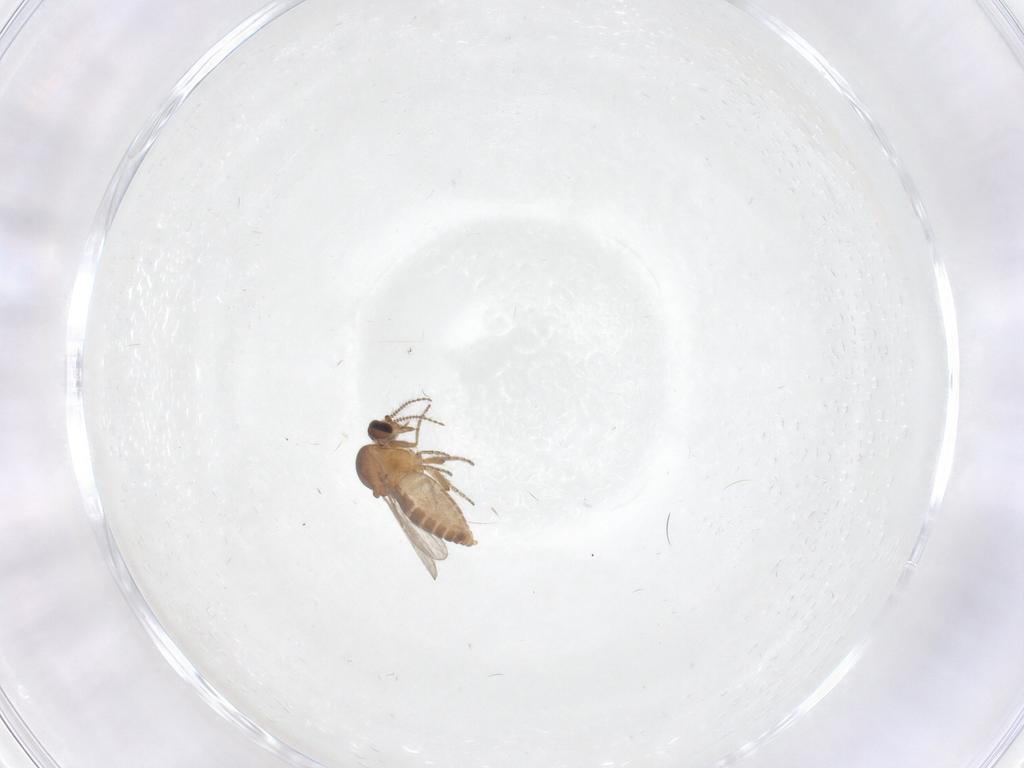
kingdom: Animalia
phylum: Arthropoda
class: Insecta
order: Diptera
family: Ceratopogonidae
